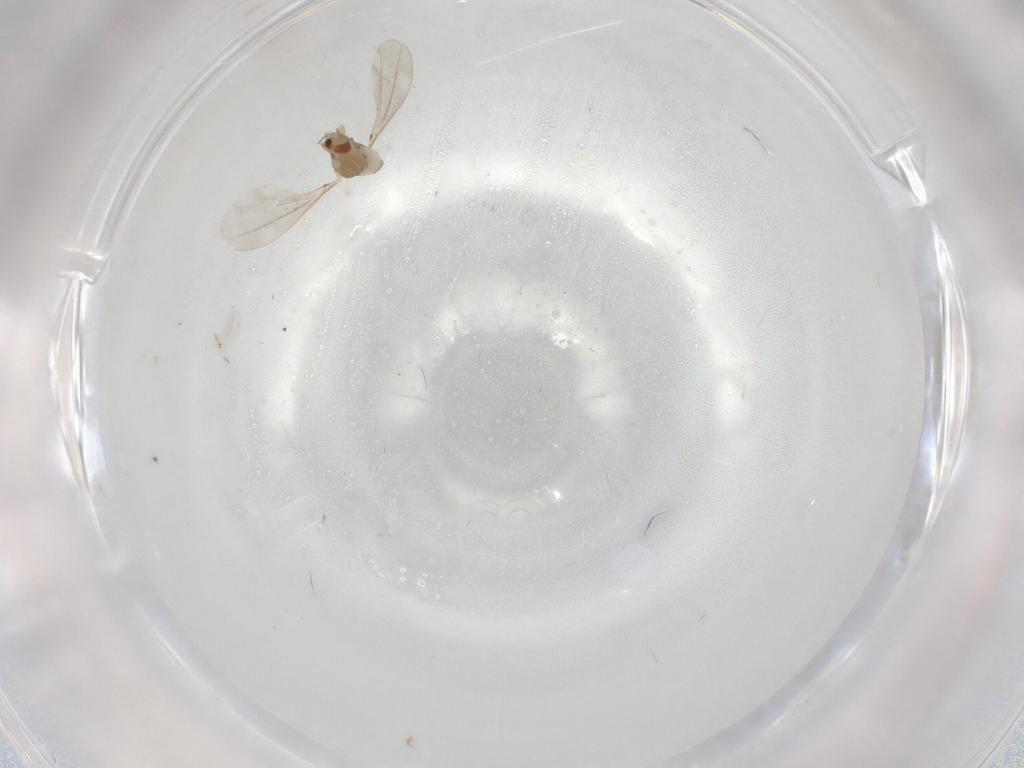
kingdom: Animalia
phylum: Arthropoda
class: Insecta
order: Diptera
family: Limoniidae
